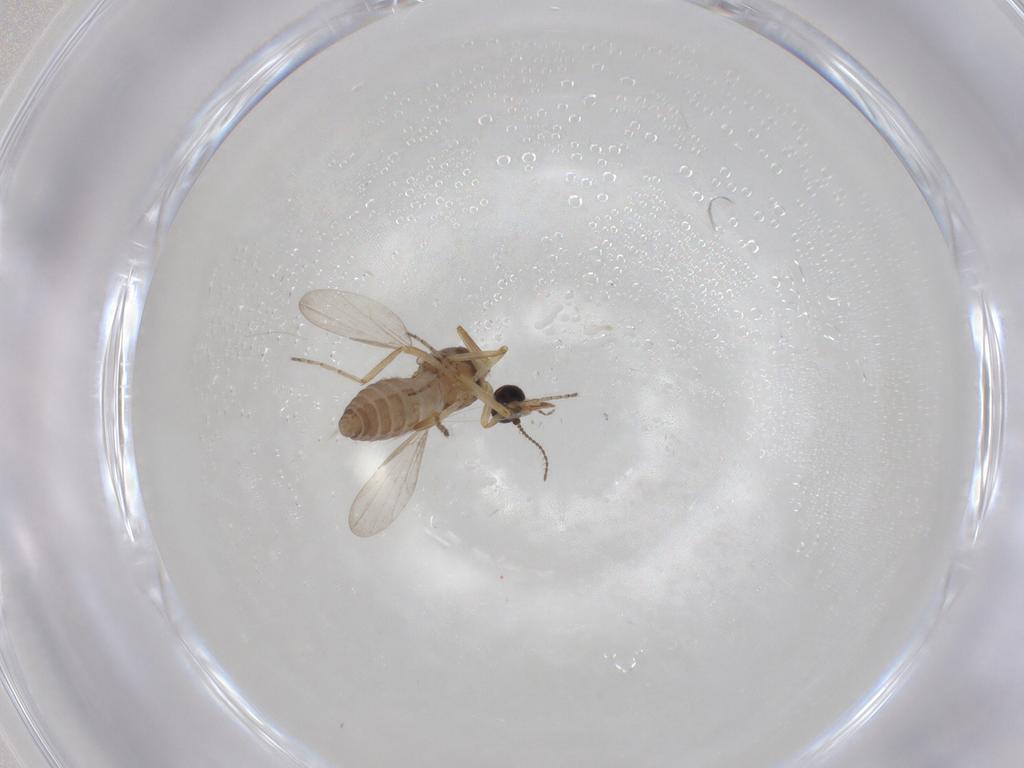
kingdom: Animalia
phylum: Arthropoda
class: Insecta
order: Diptera
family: Ceratopogonidae
